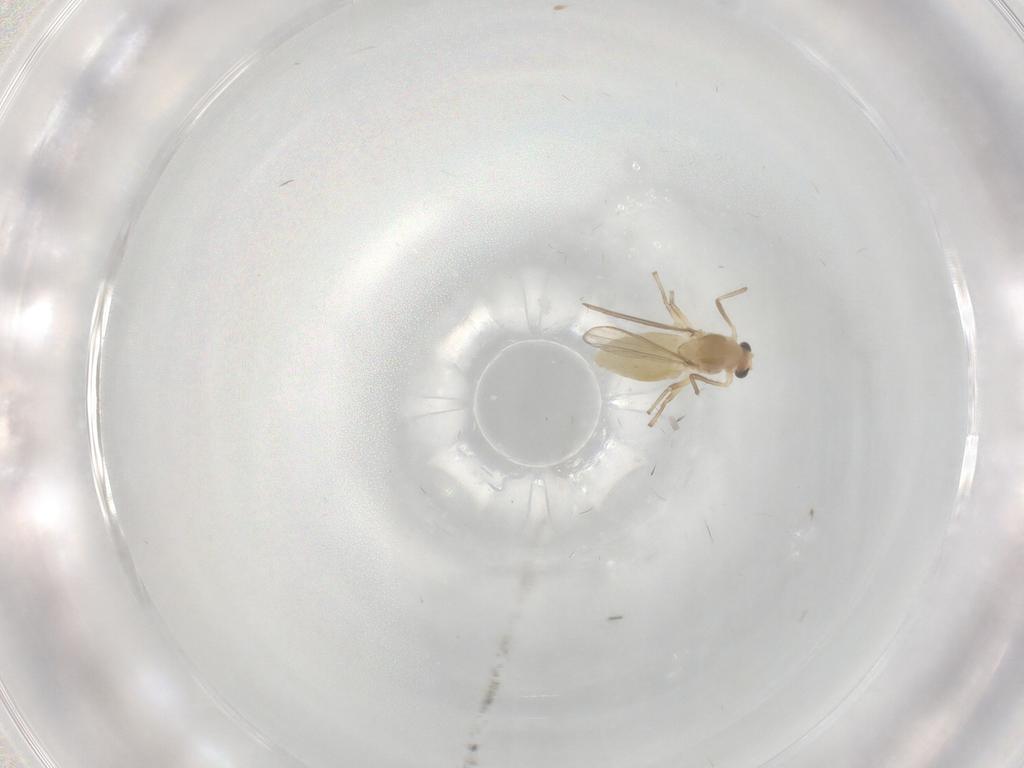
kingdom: Animalia
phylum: Arthropoda
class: Insecta
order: Diptera
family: Chironomidae
